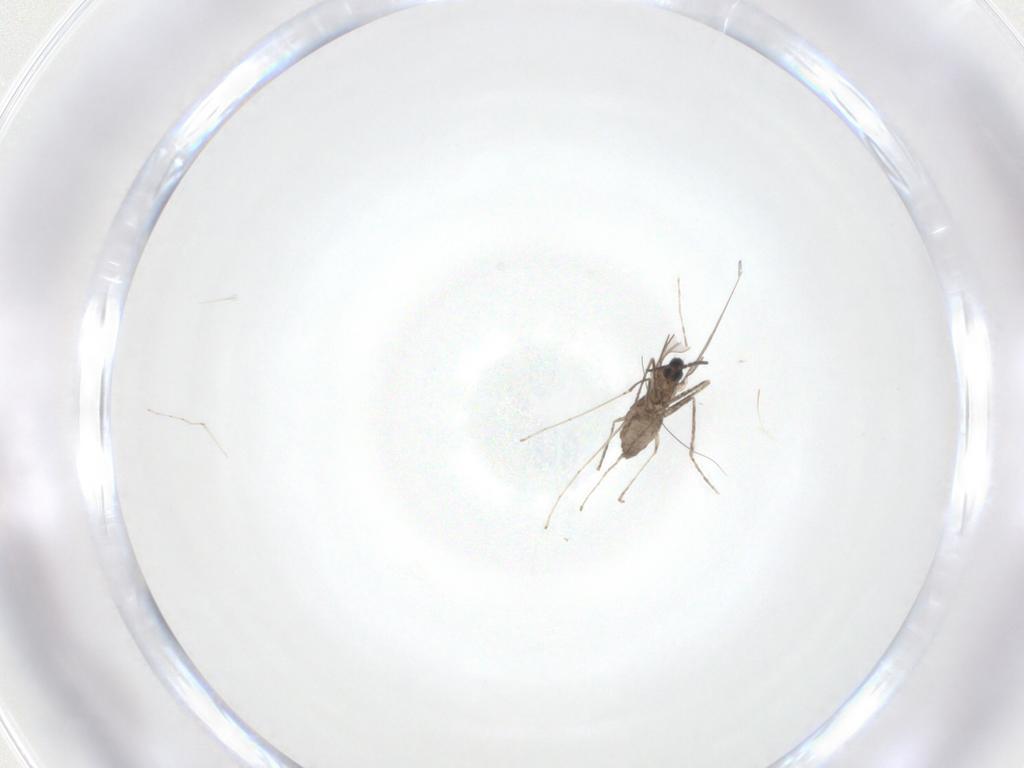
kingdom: Animalia
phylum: Arthropoda
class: Insecta
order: Diptera
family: Cecidomyiidae
